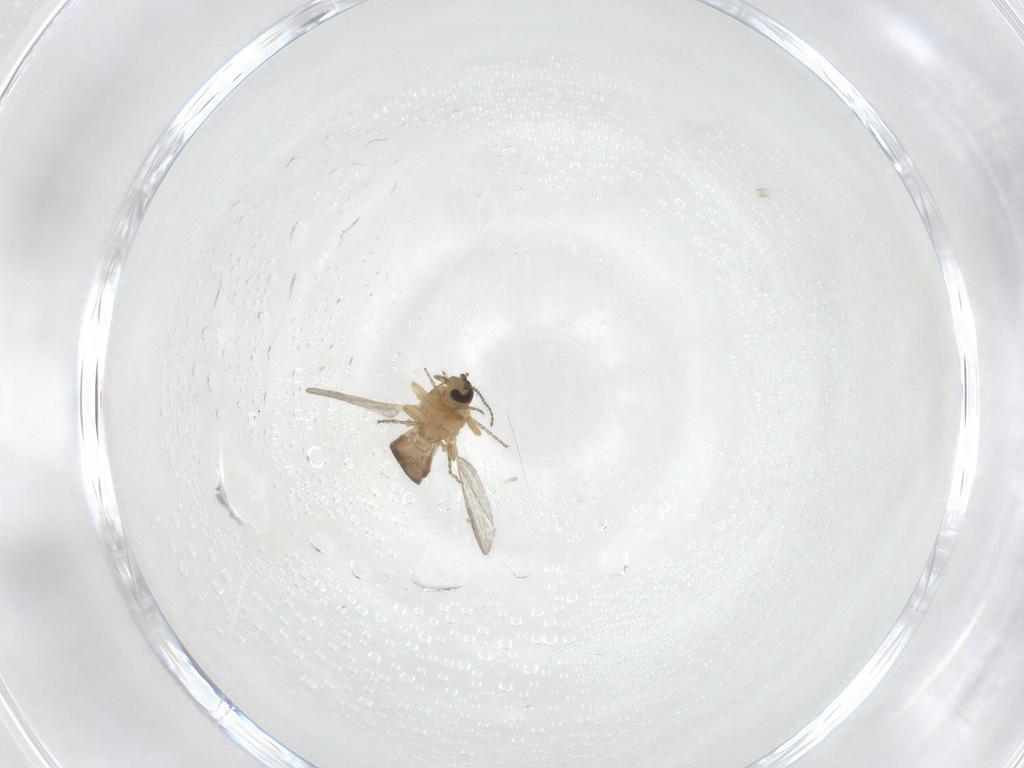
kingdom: Animalia
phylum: Arthropoda
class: Insecta
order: Diptera
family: Ceratopogonidae
